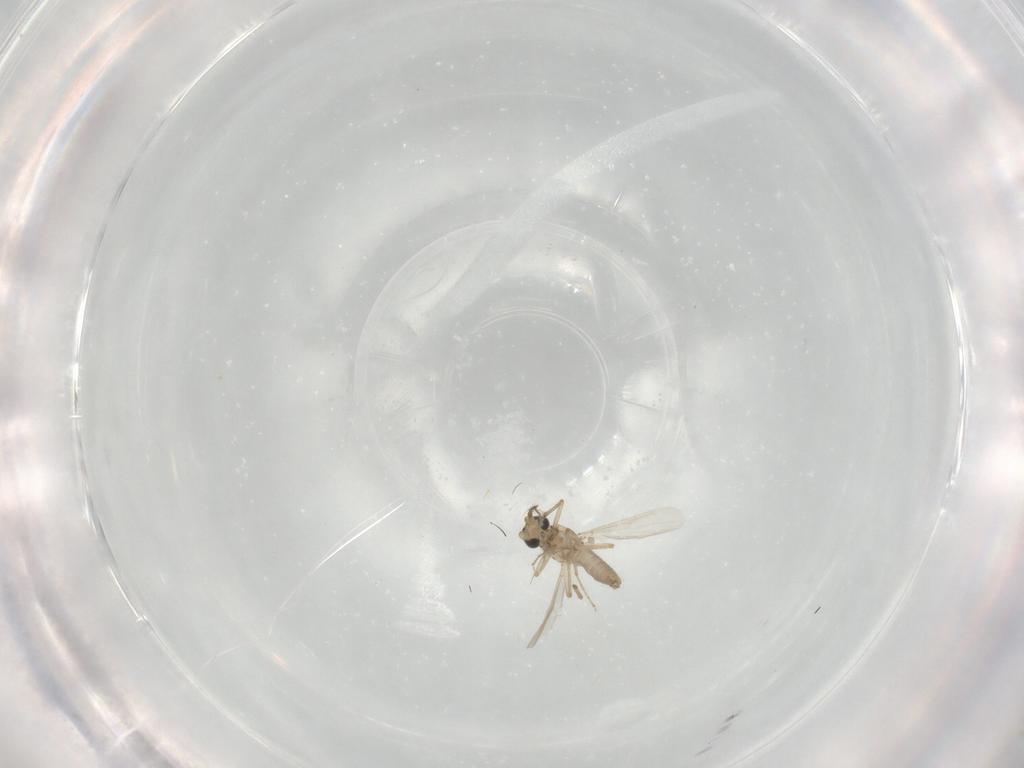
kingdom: Animalia
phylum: Arthropoda
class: Insecta
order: Diptera
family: Ceratopogonidae
